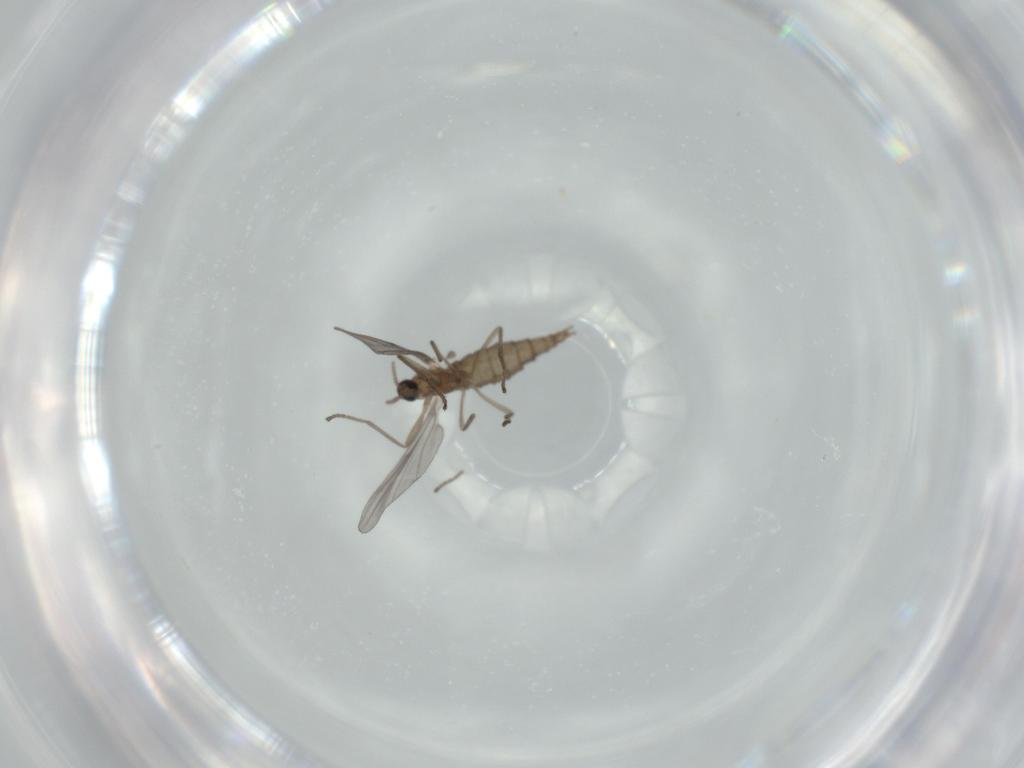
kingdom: Animalia
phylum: Arthropoda
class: Insecta
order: Diptera
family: Cecidomyiidae
